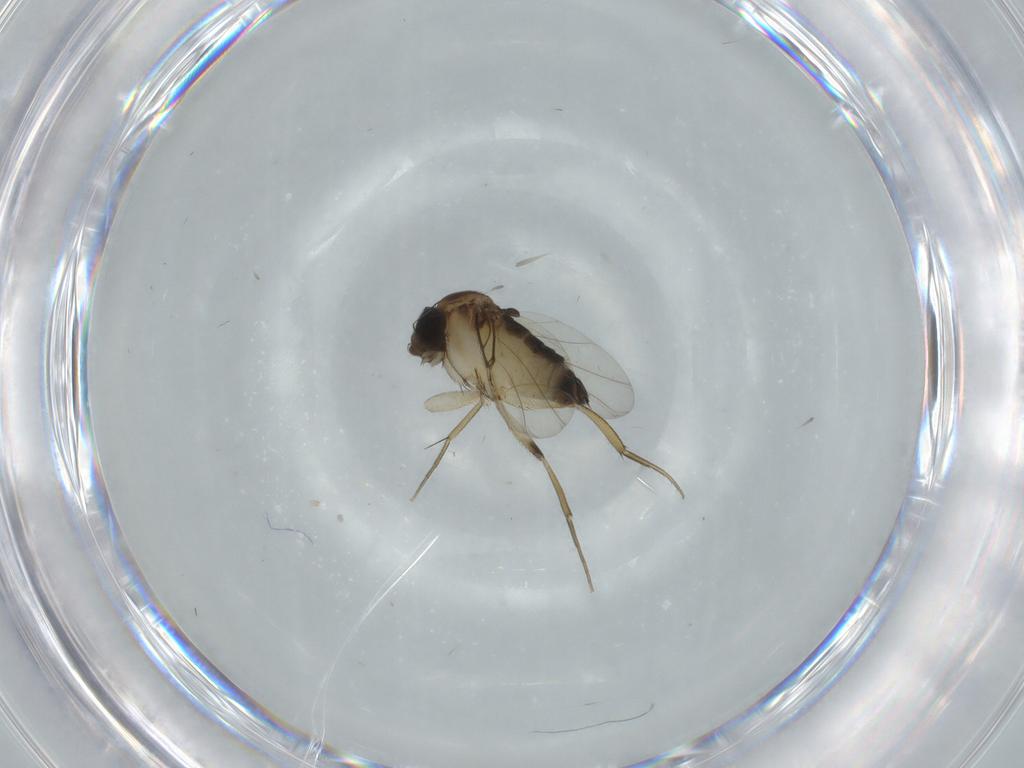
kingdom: Animalia
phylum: Arthropoda
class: Insecta
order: Diptera
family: Phoridae
